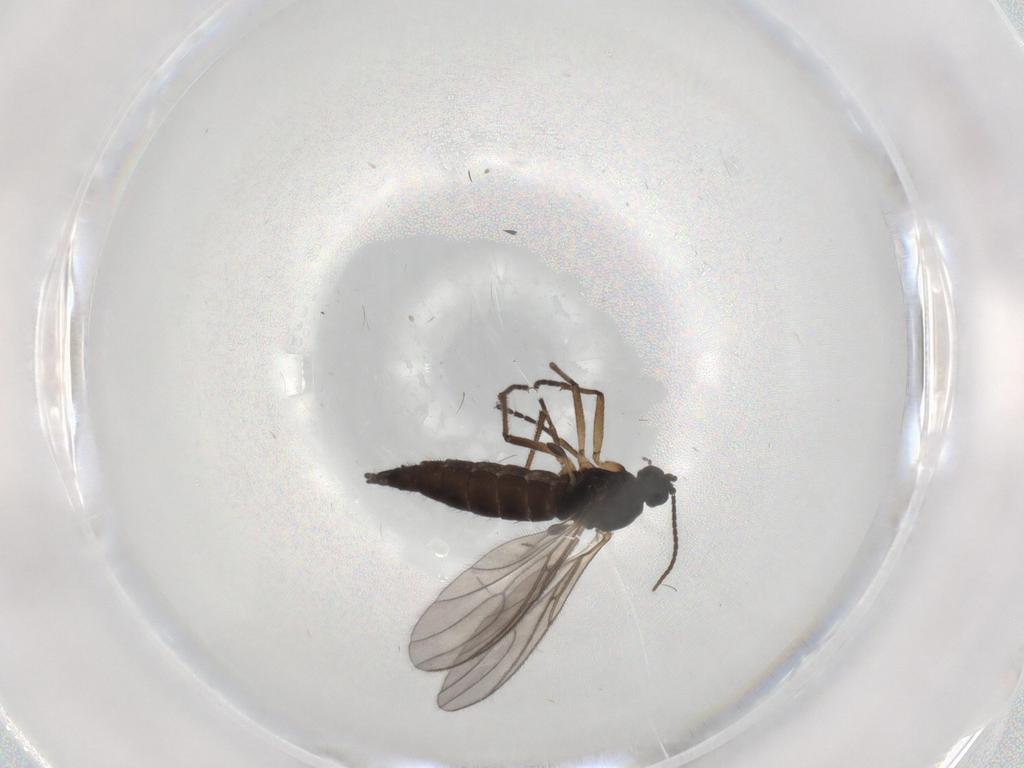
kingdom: Animalia
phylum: Arthropoda
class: Insecta
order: Diptera
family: Sciaridae
